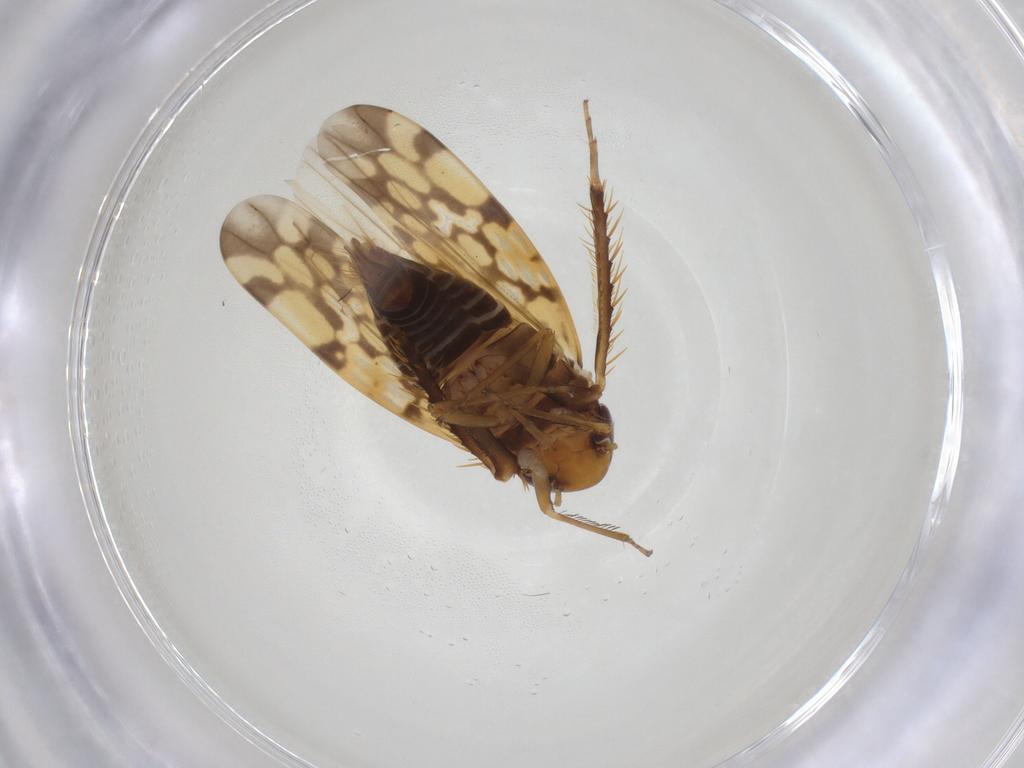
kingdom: Animalia
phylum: Arthropoda
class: Insecta
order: Hemiptera
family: Cicadellidae
